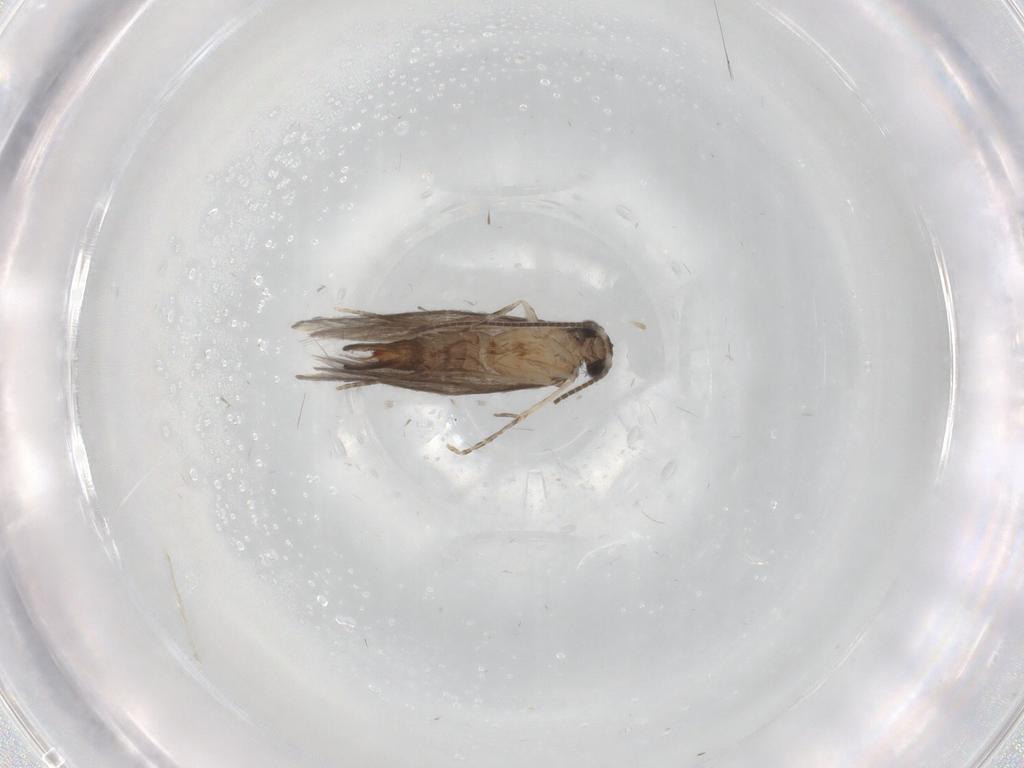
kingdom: Animalia
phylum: Arthropoda
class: Insecta
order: Trichoptera
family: Hydroptilidae
